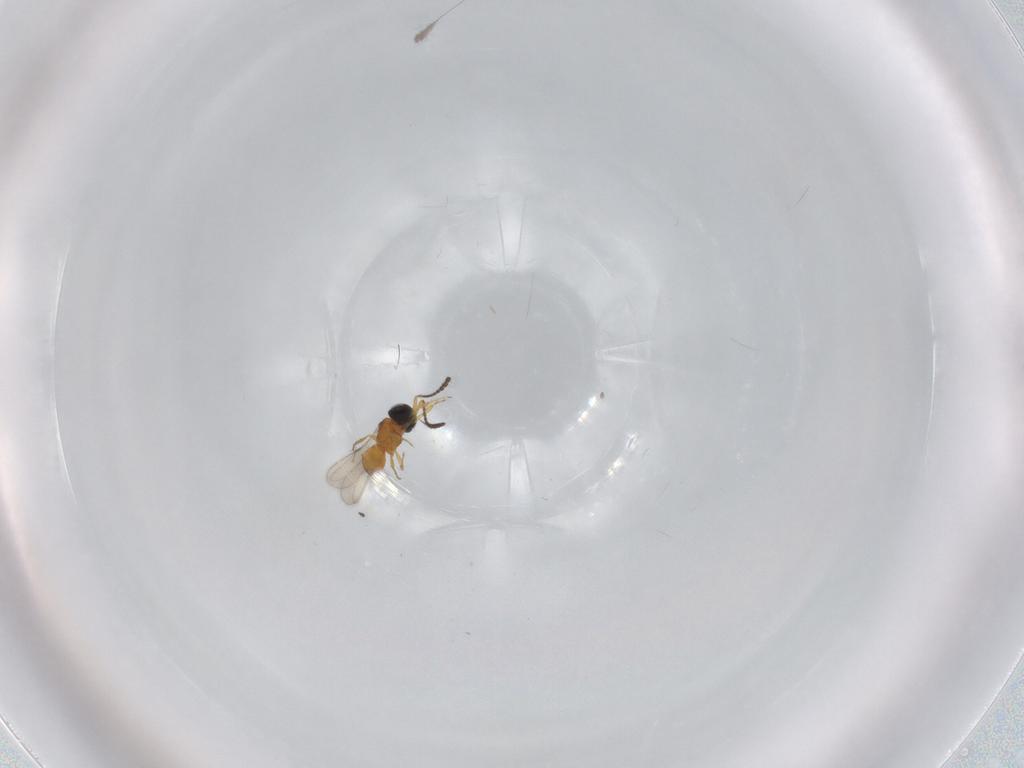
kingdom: Animalia
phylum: Arthropoda
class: Insecta
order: Hymenoptera
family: Scelionidae
